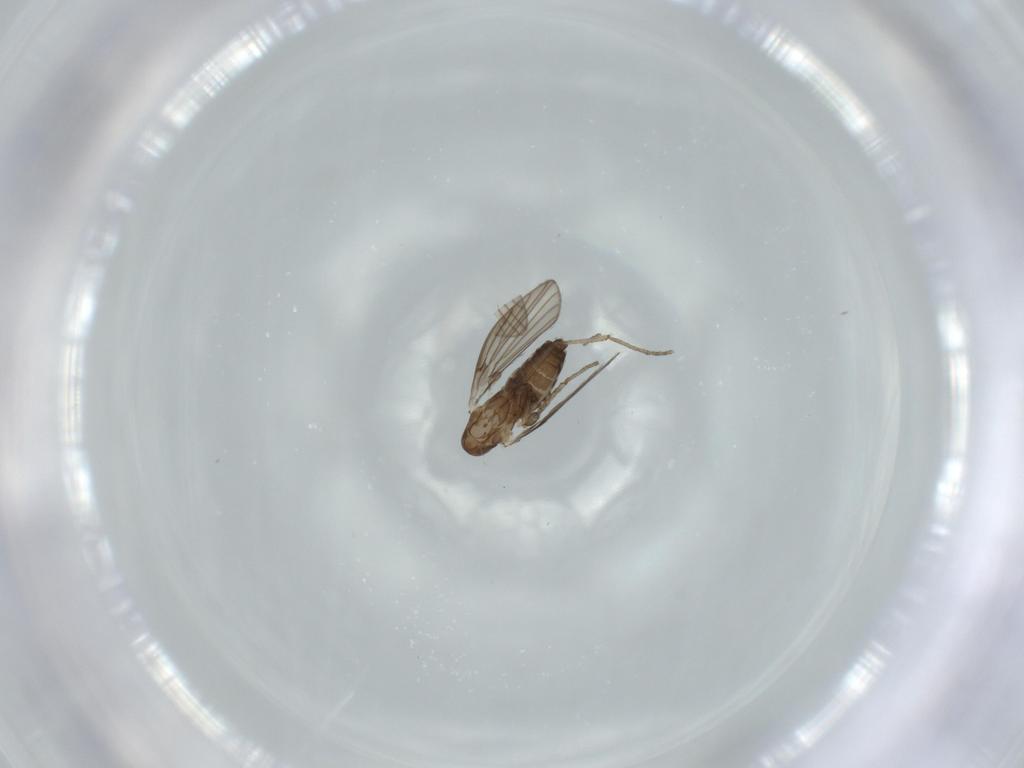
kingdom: Animalia
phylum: Arthropoda
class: Insecta
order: Diptera
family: Psychodidae
